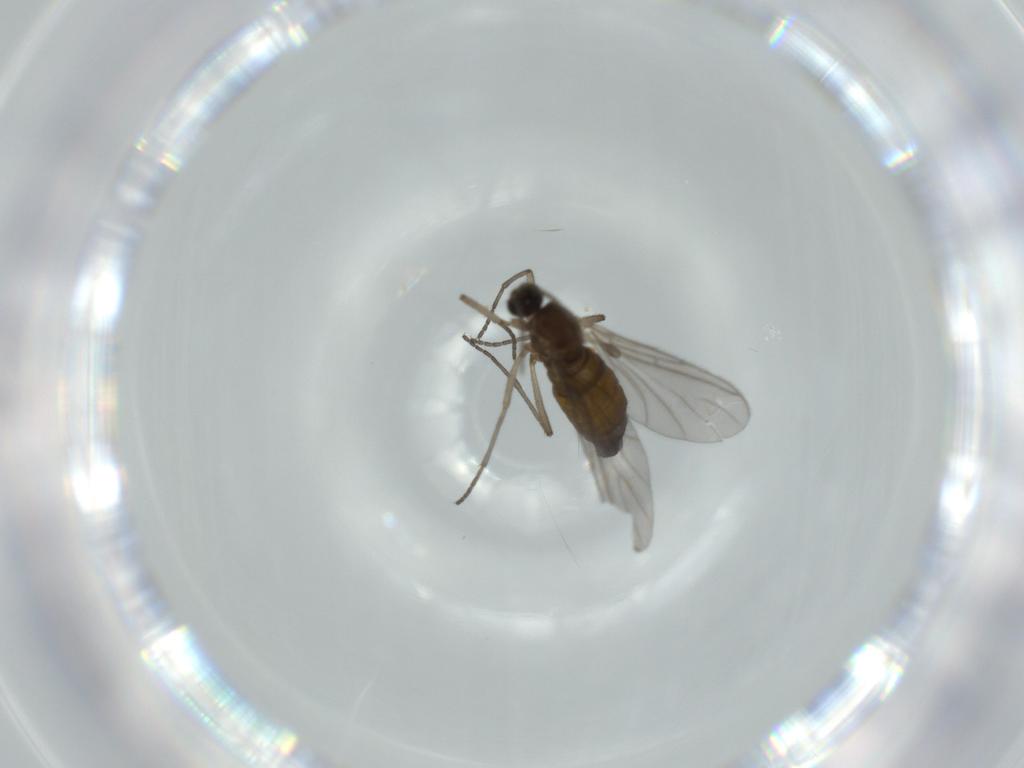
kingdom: Animalia
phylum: Arthropoda
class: Insecta
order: Diptera
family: Sciaridae
